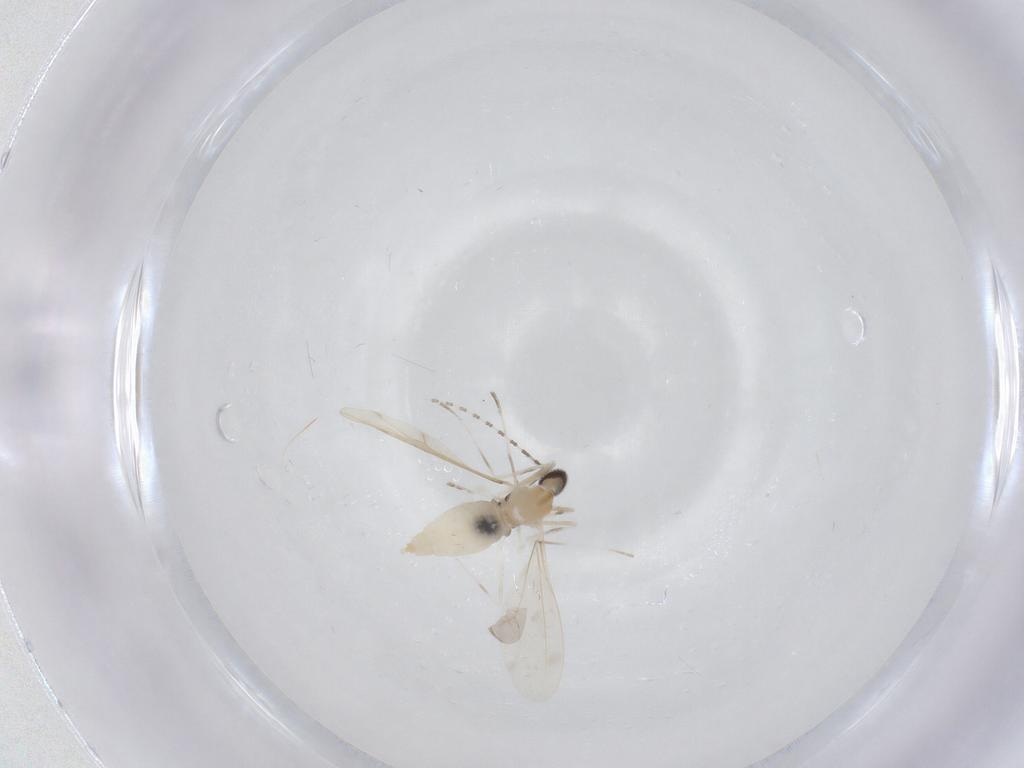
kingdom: Animalia
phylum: Arthropoda
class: Insecta
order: Diptera
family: Cecidomyiidae
